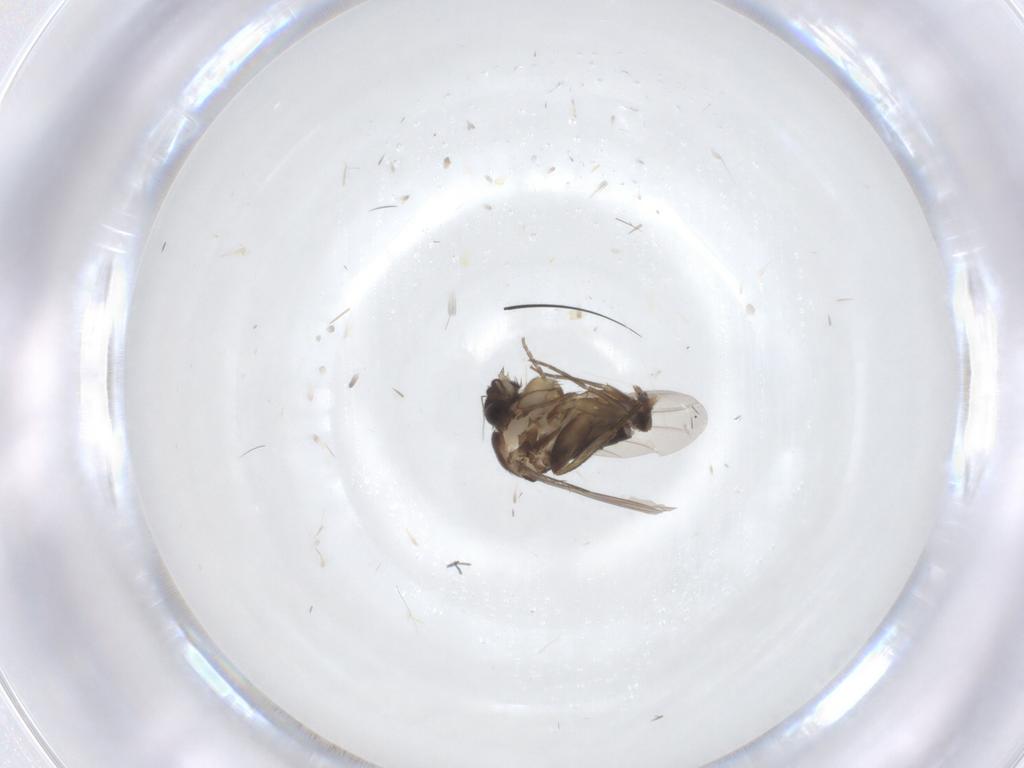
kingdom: Animalia
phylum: Arthropoda
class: Insecta
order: Diptera
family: Phoridae
